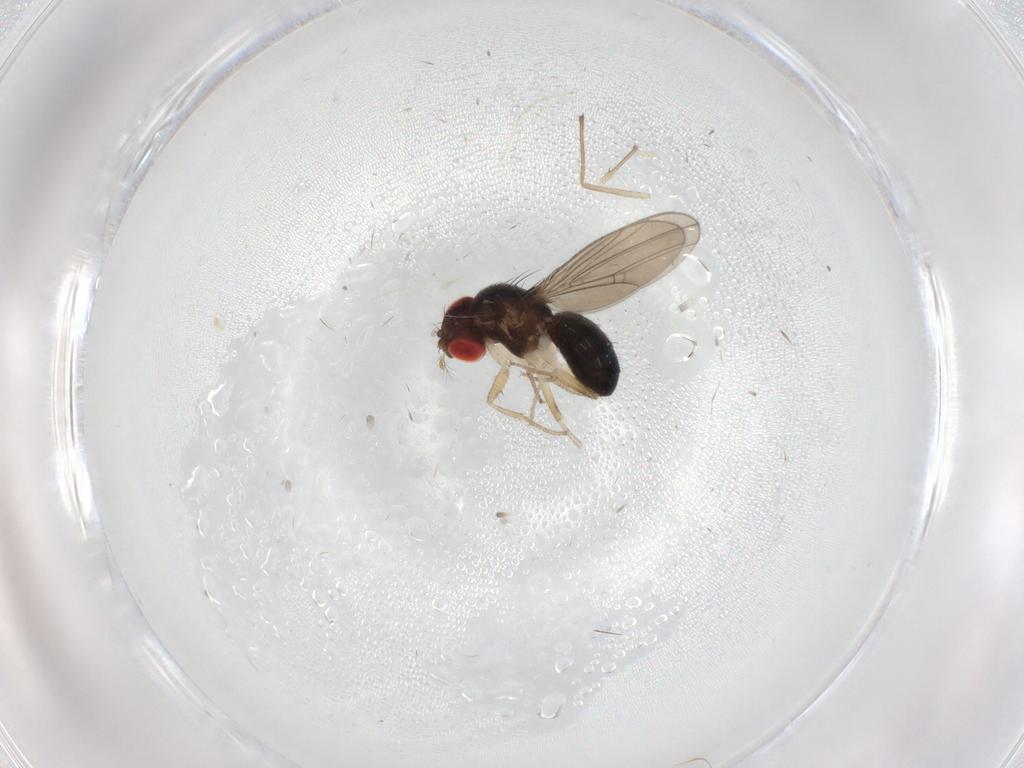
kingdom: Animalia
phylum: Arthropoda
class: Insecta
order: Diptera
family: Drosophilidae
